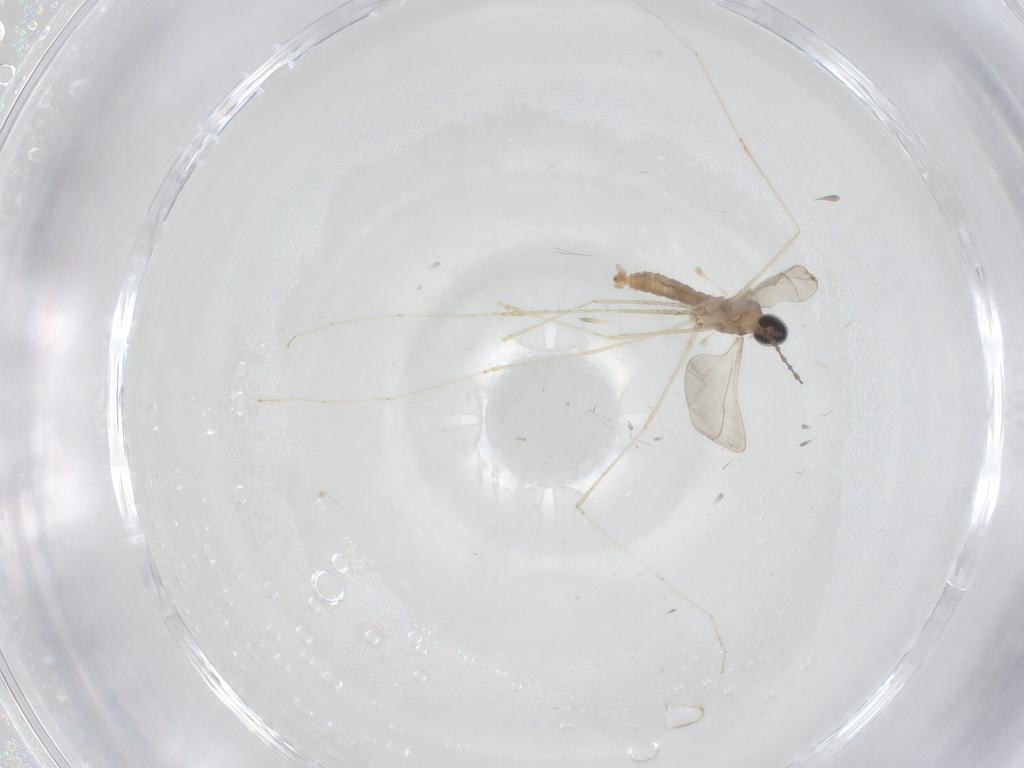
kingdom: Animalia
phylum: Arthropoda
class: Insecta
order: Diptera
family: Cecidomyiidae
